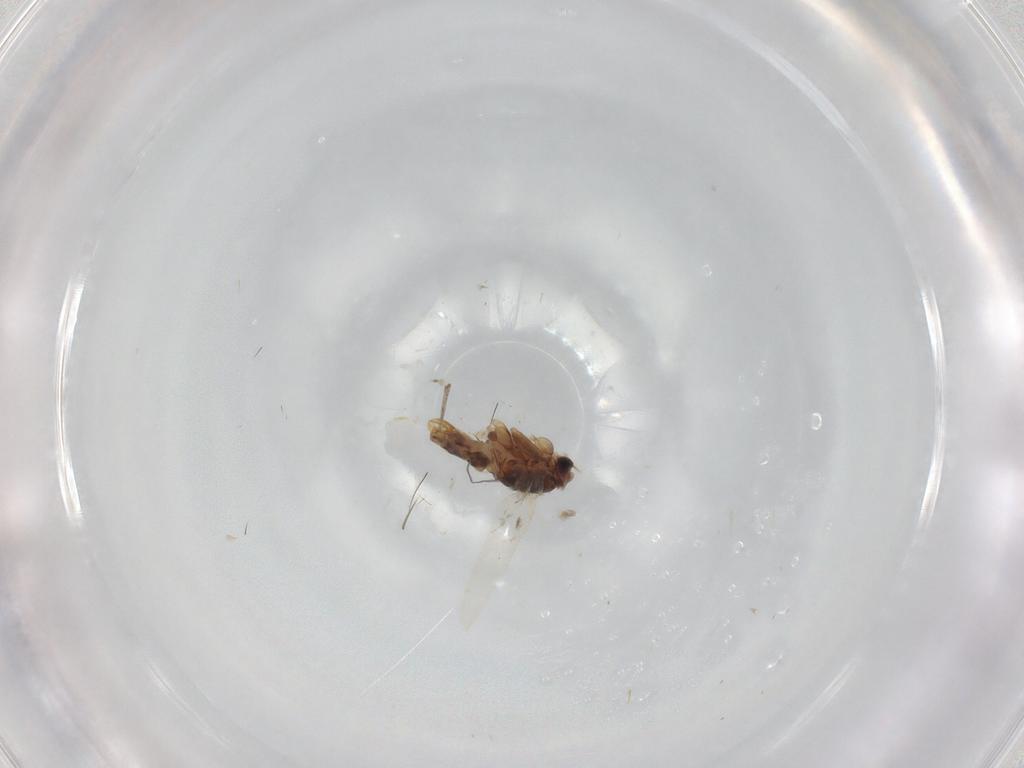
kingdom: Animalia
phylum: Arthropoda
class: Insecta
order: Lepidoptera
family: Nepticulidae
